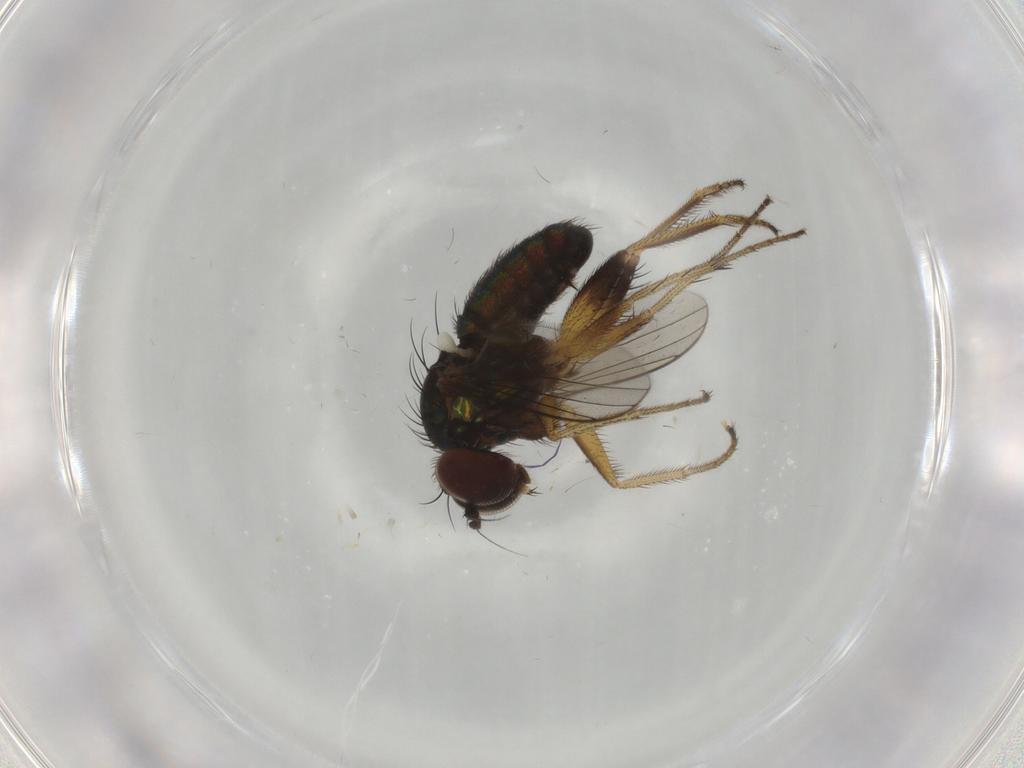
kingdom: Animalia
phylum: Arthropoda
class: Insecta
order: Diptera
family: Dolichopodidae
